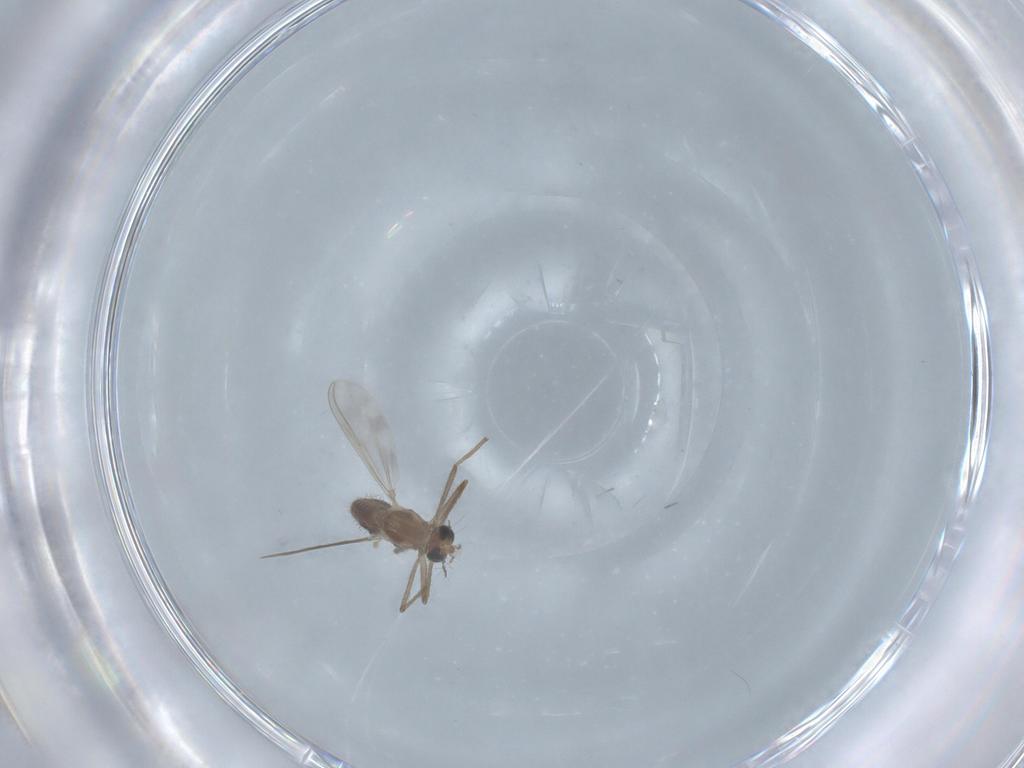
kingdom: Animalia
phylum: Arthropoda
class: Insecta
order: Diptera
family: Chironomidae
